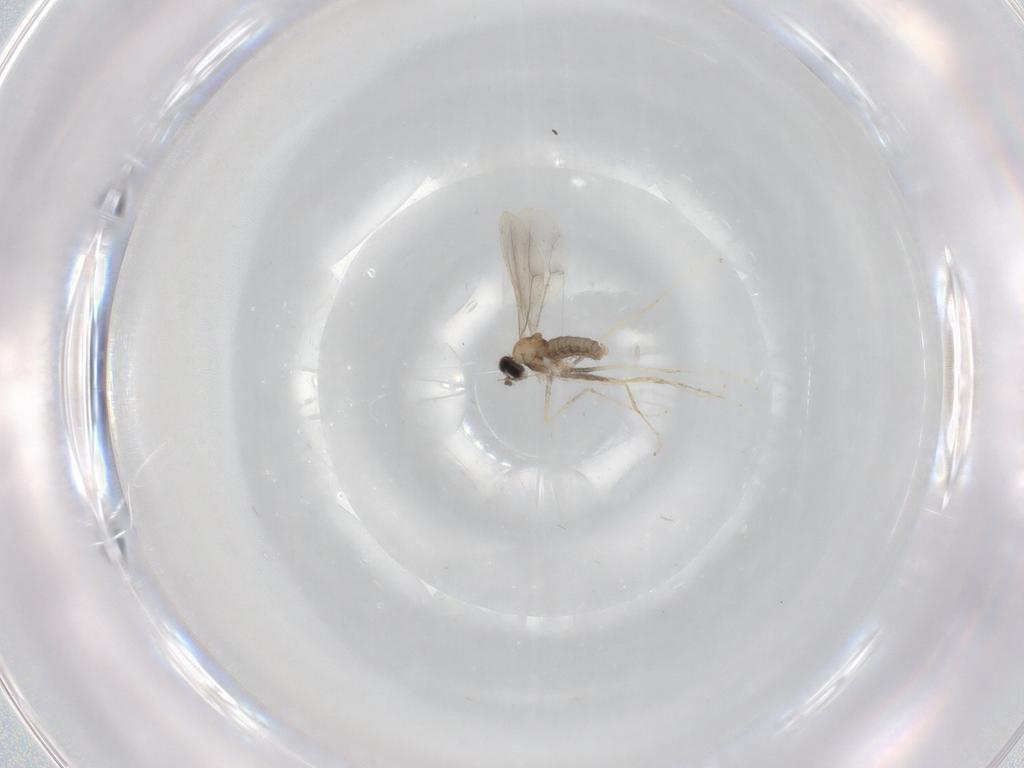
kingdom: Animalia
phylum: Arthropoda
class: Insecta
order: Diptera
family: Cecidomyiidae
